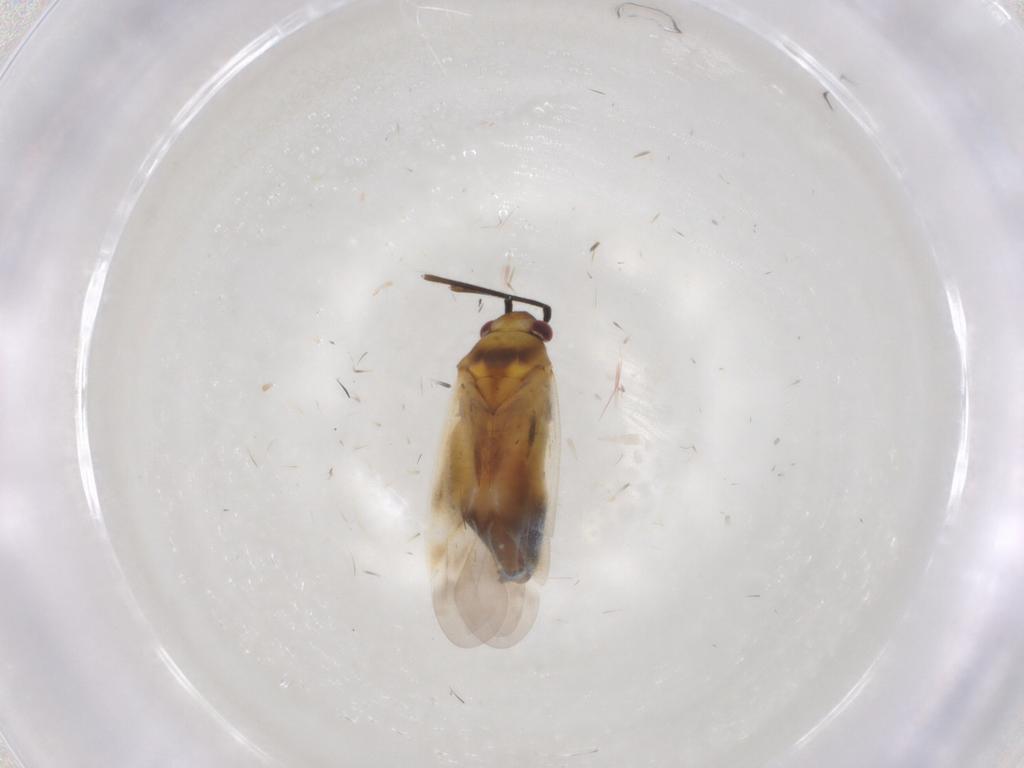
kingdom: Animalia
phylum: Arthropoda
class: Insecta
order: Hemiptera
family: Miridae
